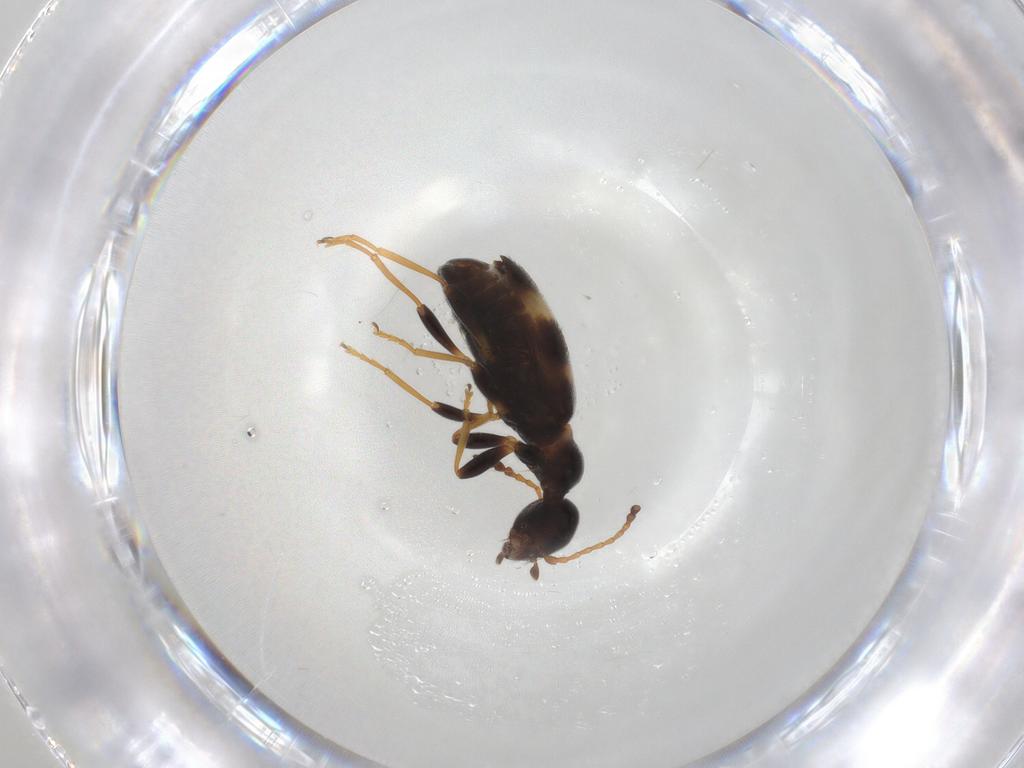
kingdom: Animalia
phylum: Arthropoda
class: Insecta
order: Coleoptera
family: Anthicidae
